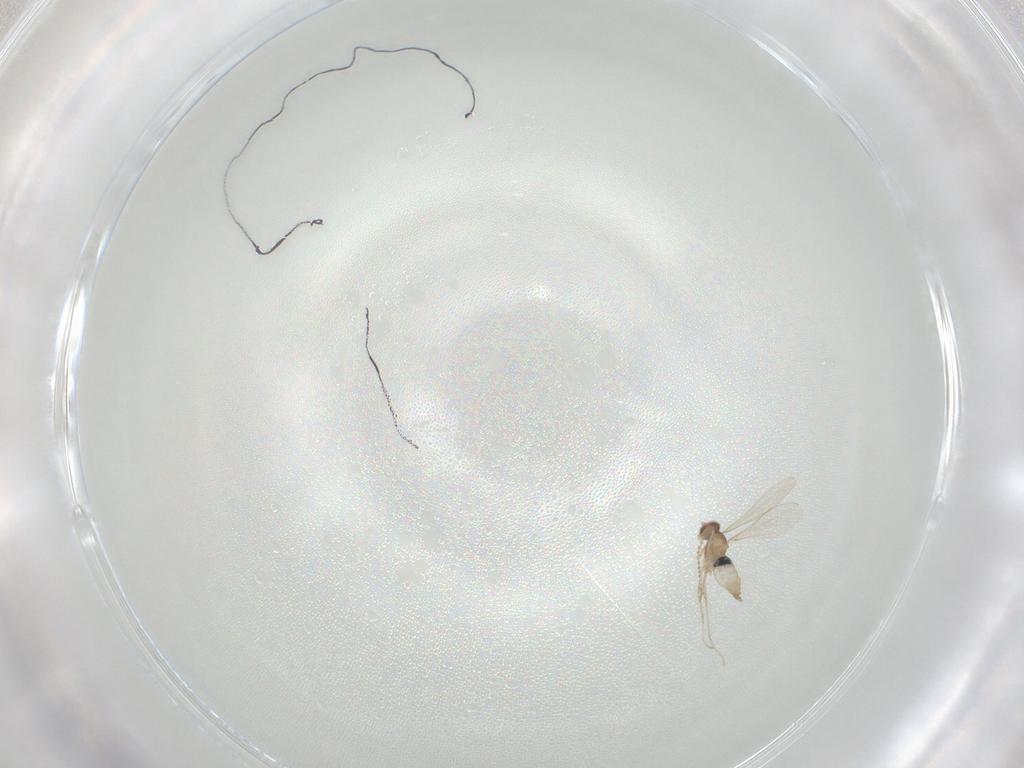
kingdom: Animalia
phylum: Arthropoda
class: Insecta
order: Diptera
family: Cecidomyiidae
